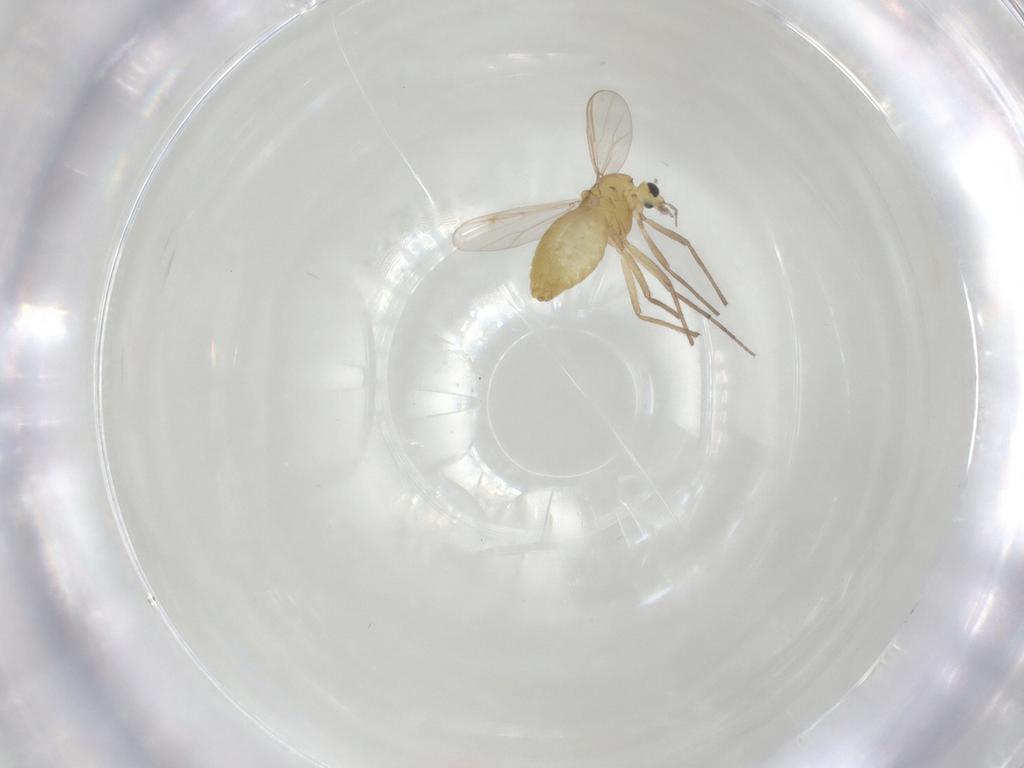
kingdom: Animalia
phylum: Arthropoda
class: Insecta
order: Diptera
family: Chironomidae
